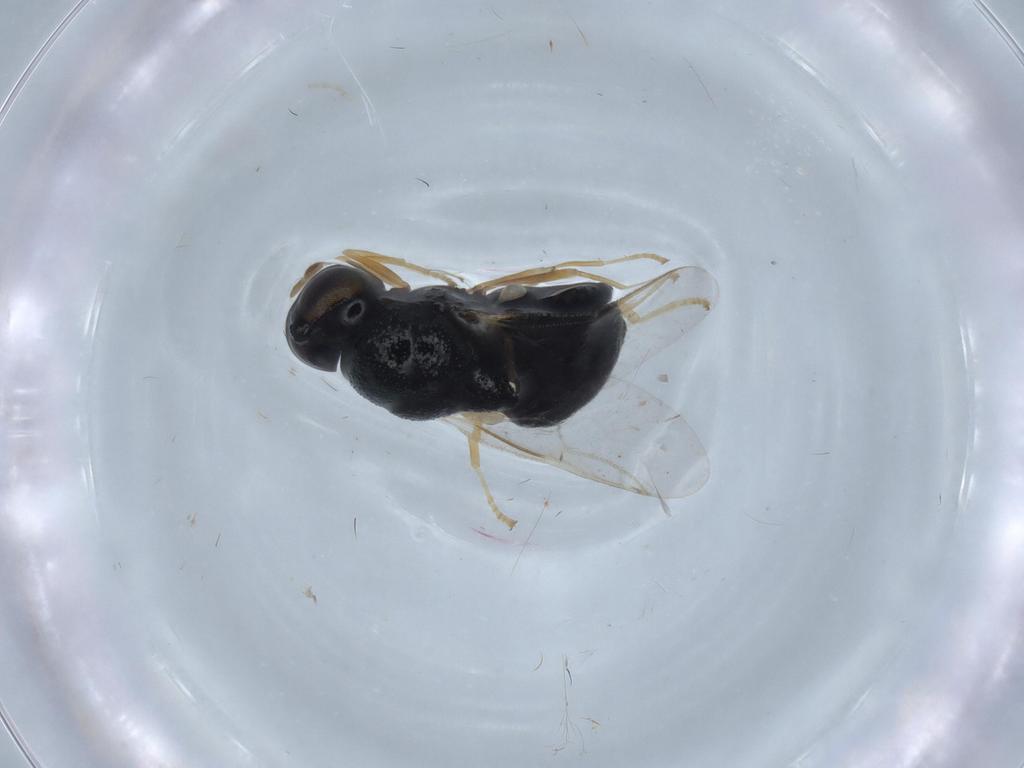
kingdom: Animalia
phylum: Arthropoda
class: Insecta
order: Diptera
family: Chironomidae
